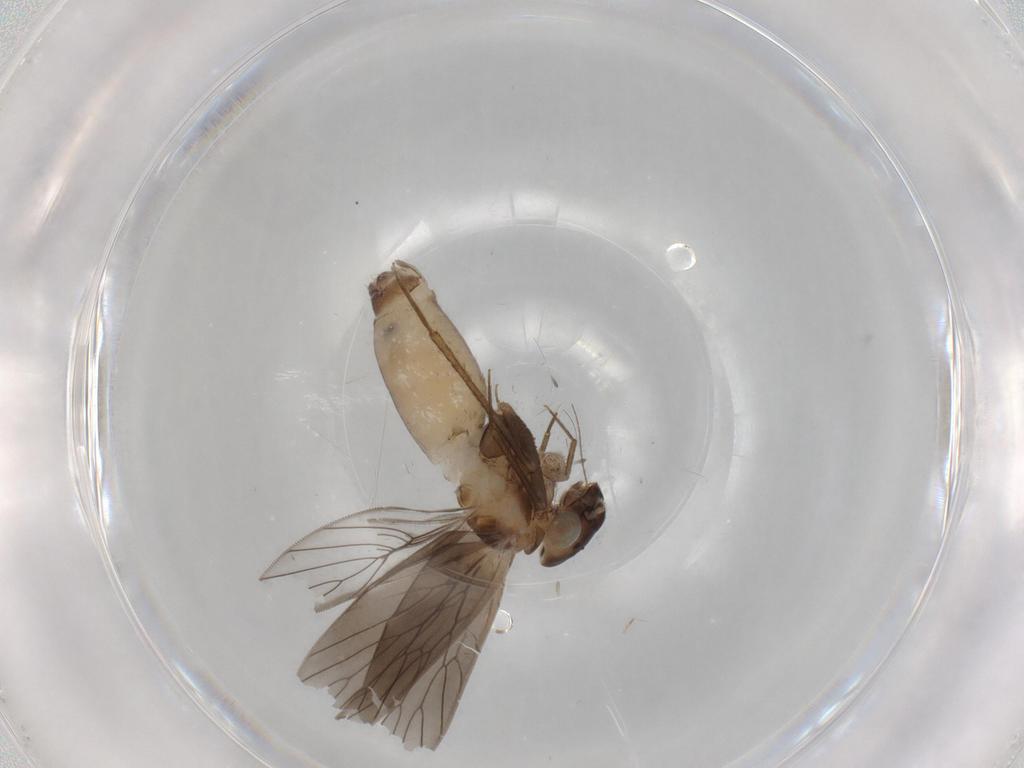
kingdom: Animalia
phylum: Arthropoda
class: Insecta
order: Psocodea
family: Lepidopsocidae
